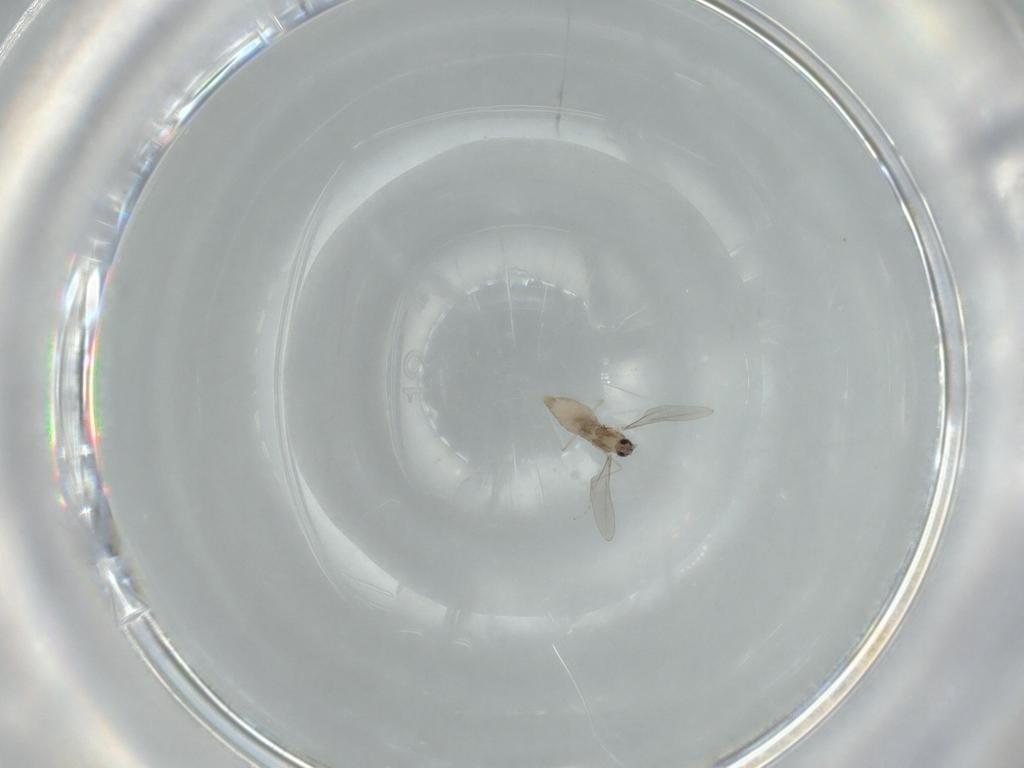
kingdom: Animalia
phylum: Arthropoda
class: Insecta
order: Diptera
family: Cecidomyiidae
